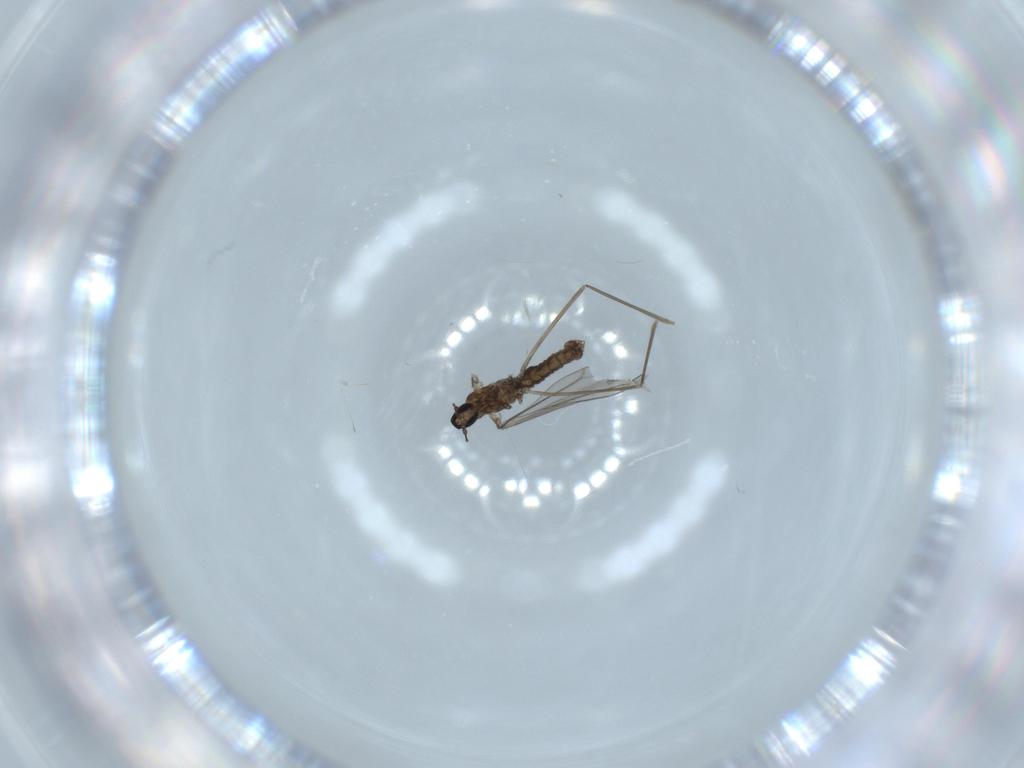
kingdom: Animalia
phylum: Arthropoda
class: Insecta
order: Diptera
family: Cecidomyiidae
